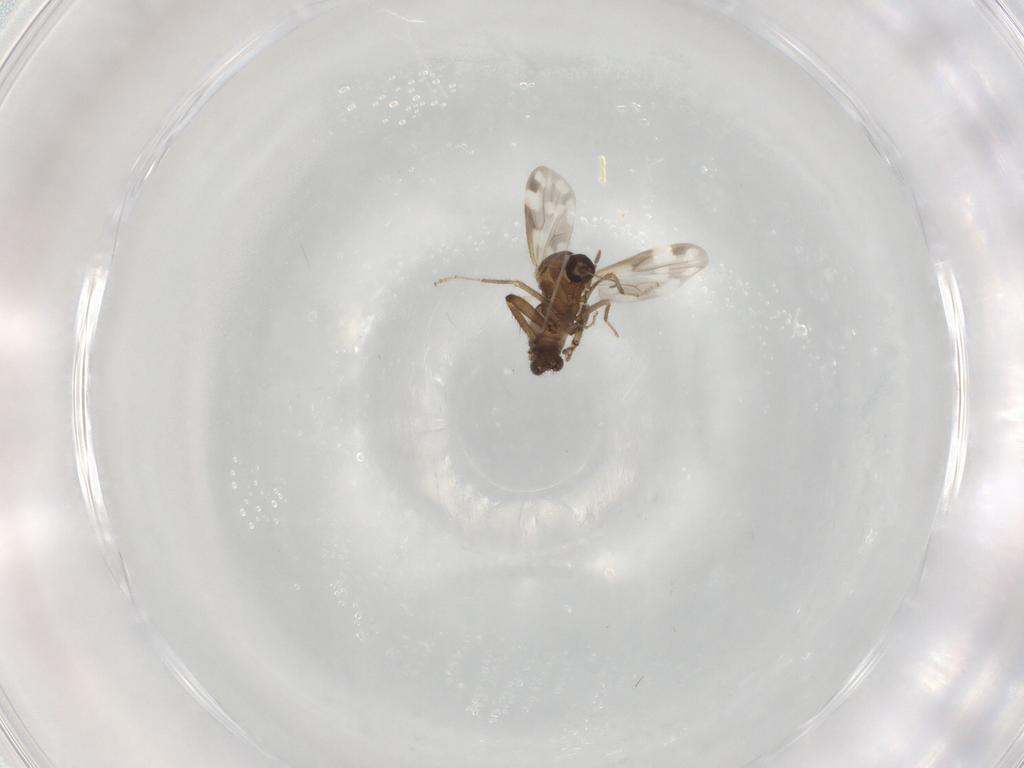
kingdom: Animalia
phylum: Arthropoda
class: Insecta
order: Diptera
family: Ceratopogonidae
